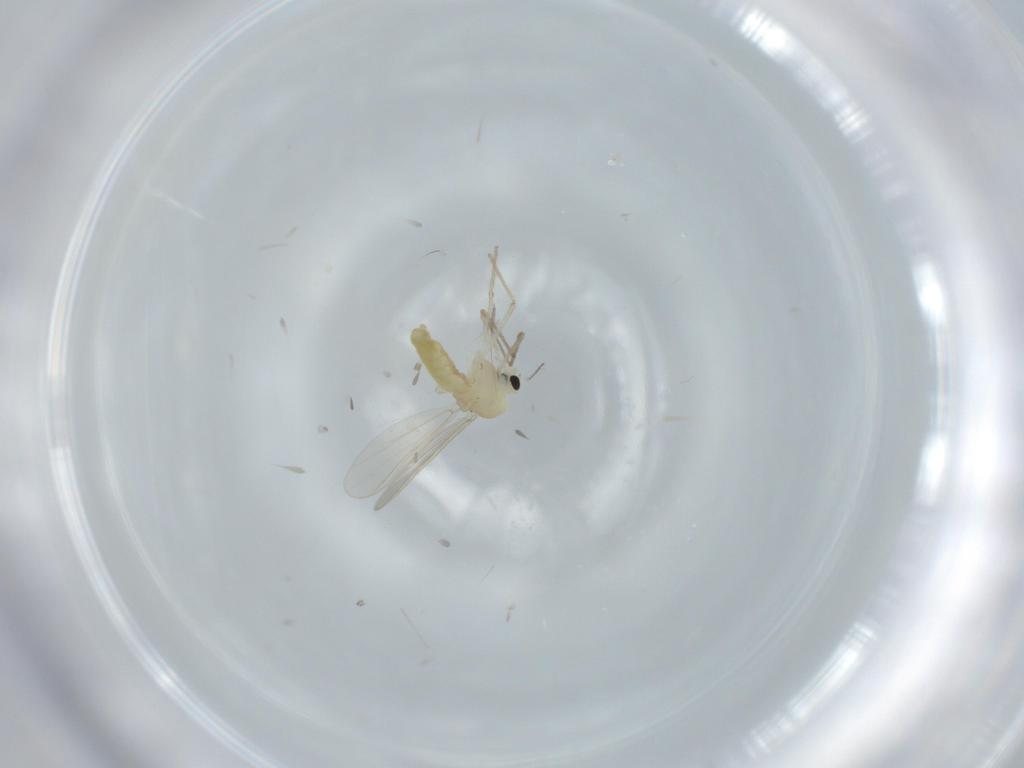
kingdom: Animalia
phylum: Arthropoda
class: Insecta
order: Diptera
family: Chironomidae
